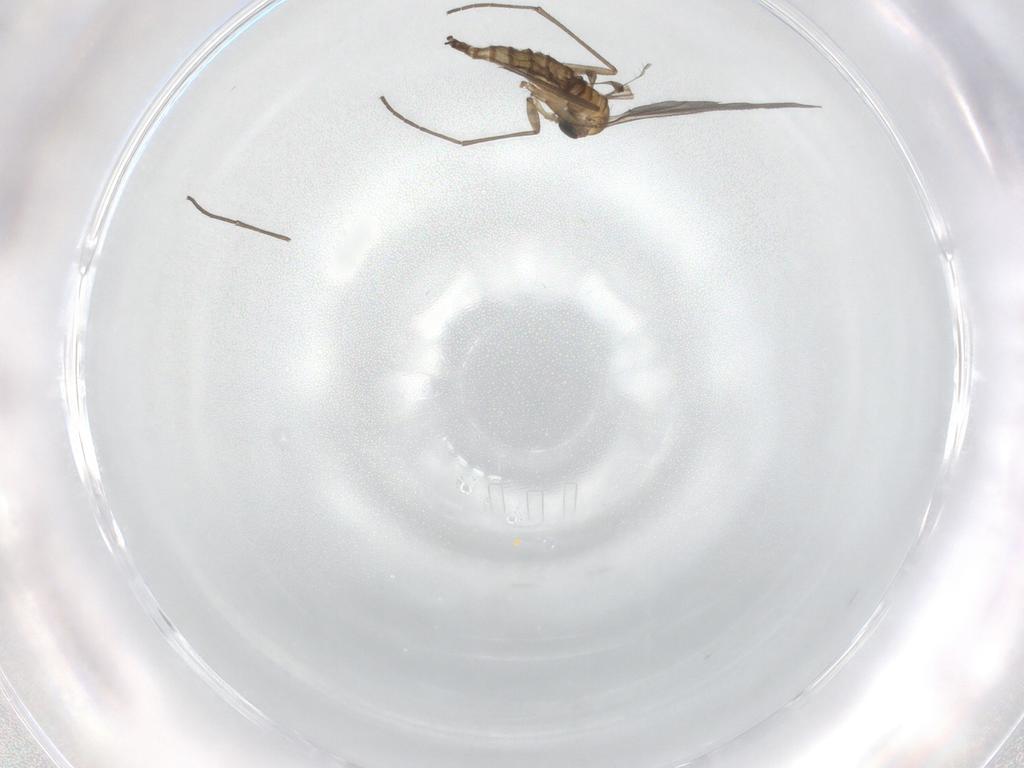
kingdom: Animalia
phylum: Arthropoda
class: Insecta
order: Diptera
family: Sciaridae
